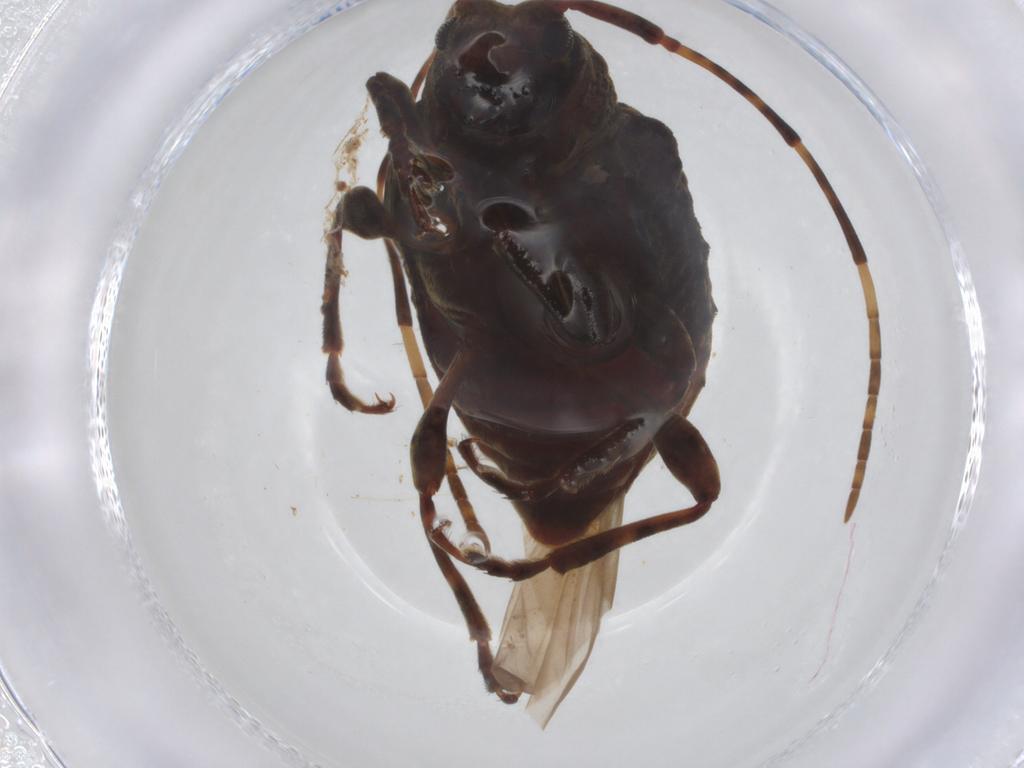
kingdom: Animalia
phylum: Arthropoda
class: Insecta
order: Coleoptera
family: Cerambycidae
